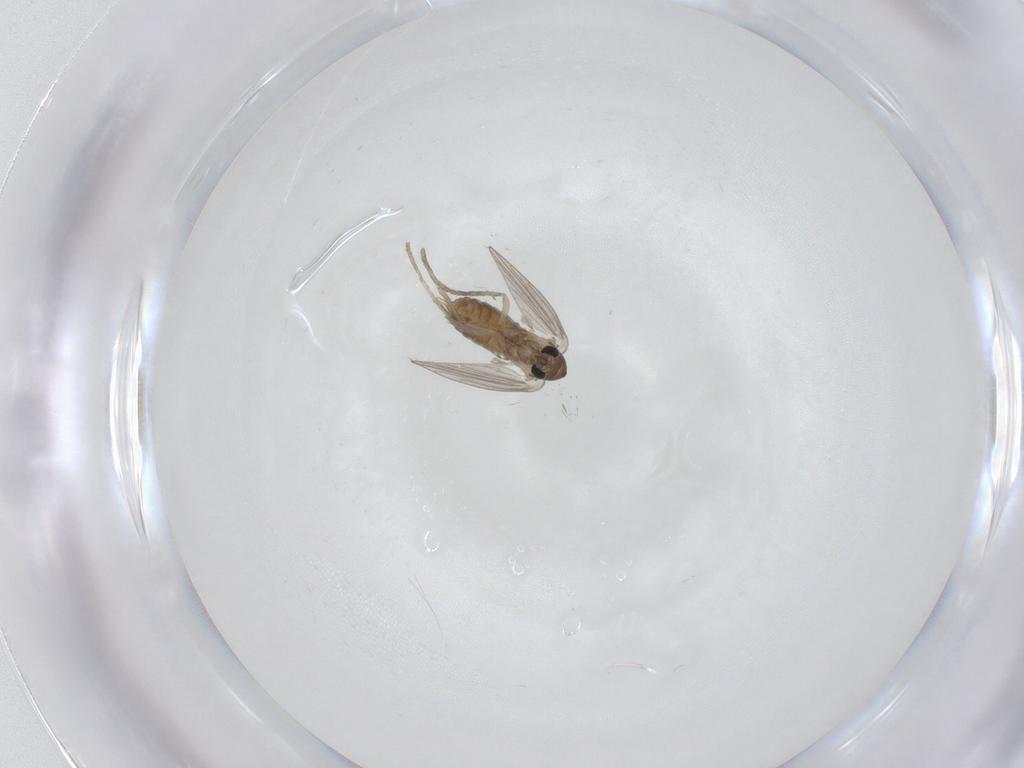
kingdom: Animalia
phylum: Arthropoda
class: Insecta
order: Diptera
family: Psychodidae
